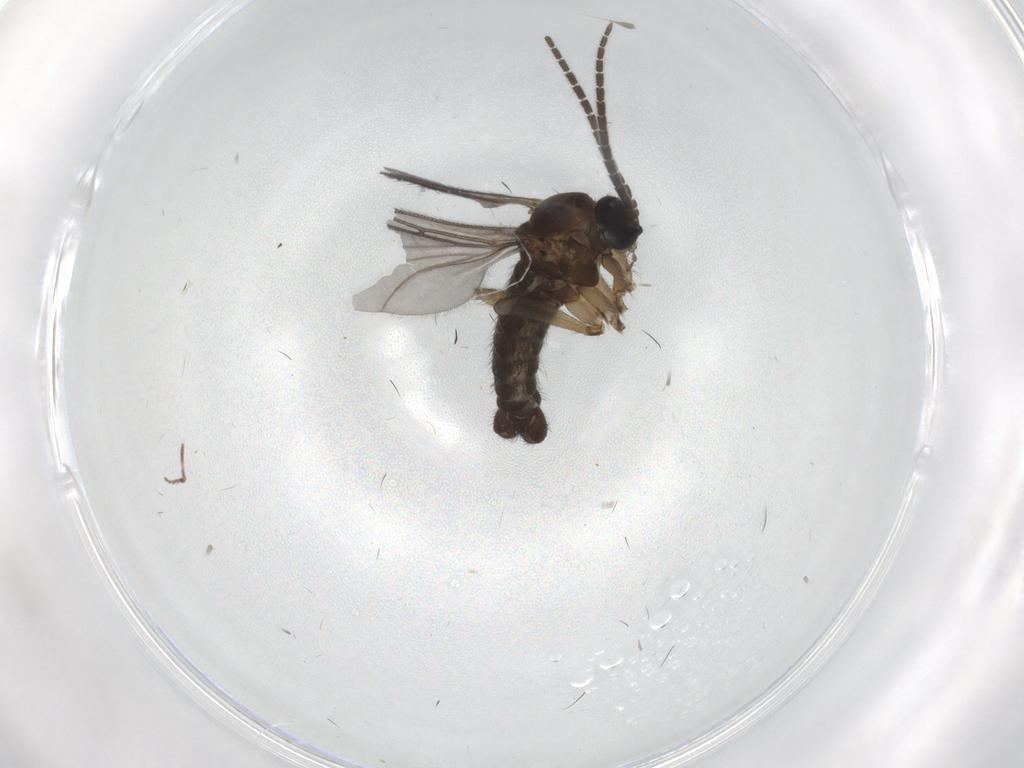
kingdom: Animalia
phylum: Arthropoda
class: Insecta
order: Diptera
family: Sciaridae
